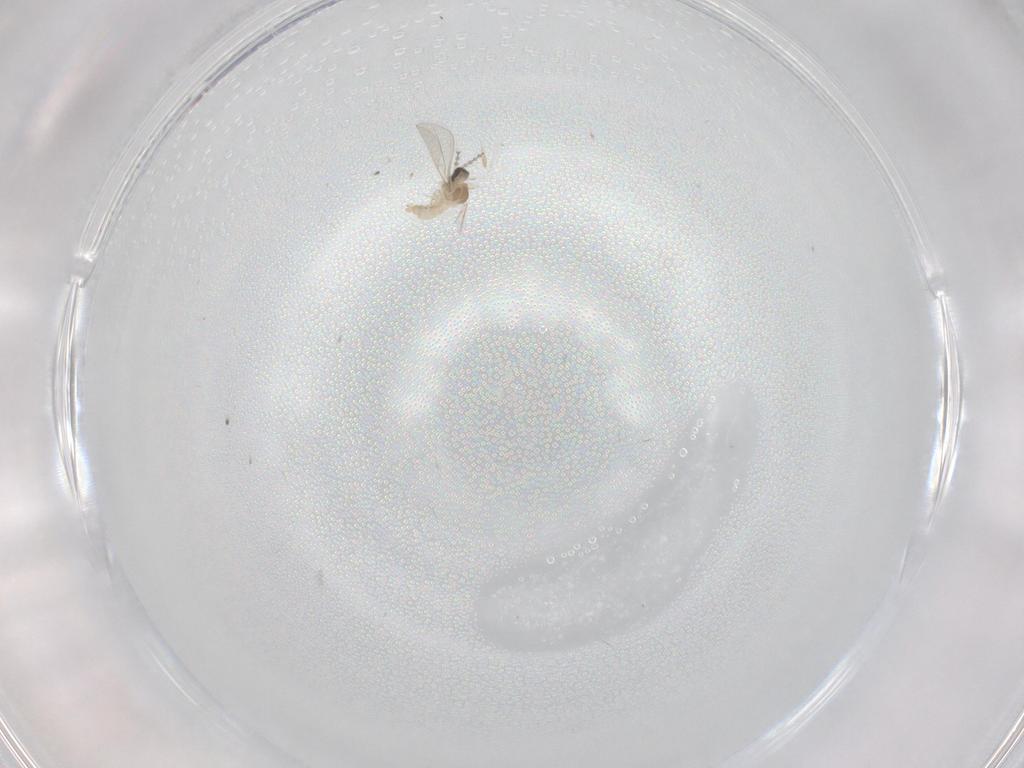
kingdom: Animalia
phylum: Arthropoda
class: Insecta
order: Diptera
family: Cecidomyiidae
